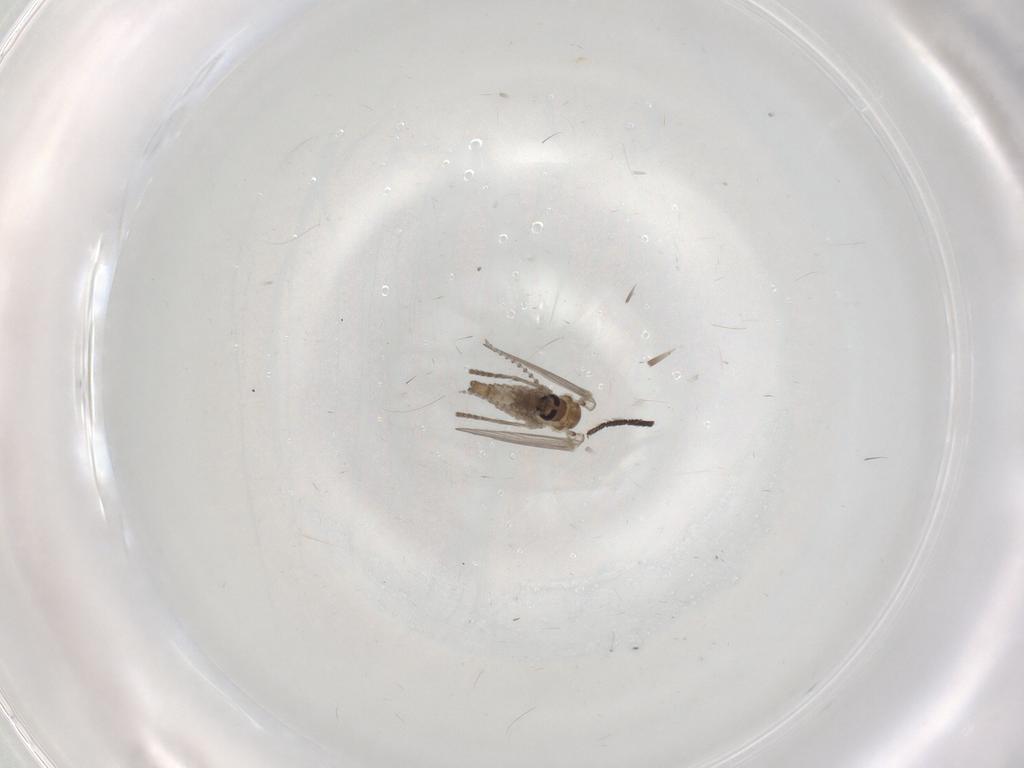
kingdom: Animalia
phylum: Arthropoda
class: Insecta
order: Diptera
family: Psychodidae
